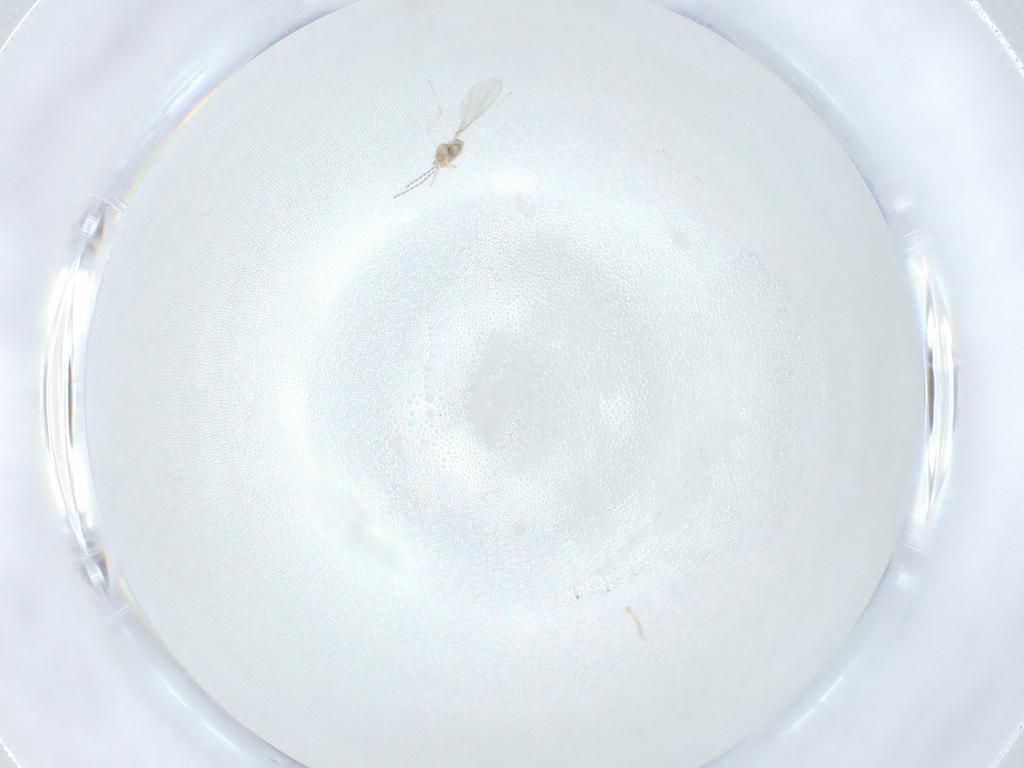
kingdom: Animalia
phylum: Arthropoda
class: Insecta
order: Diptera
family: Cecidomyiidae
